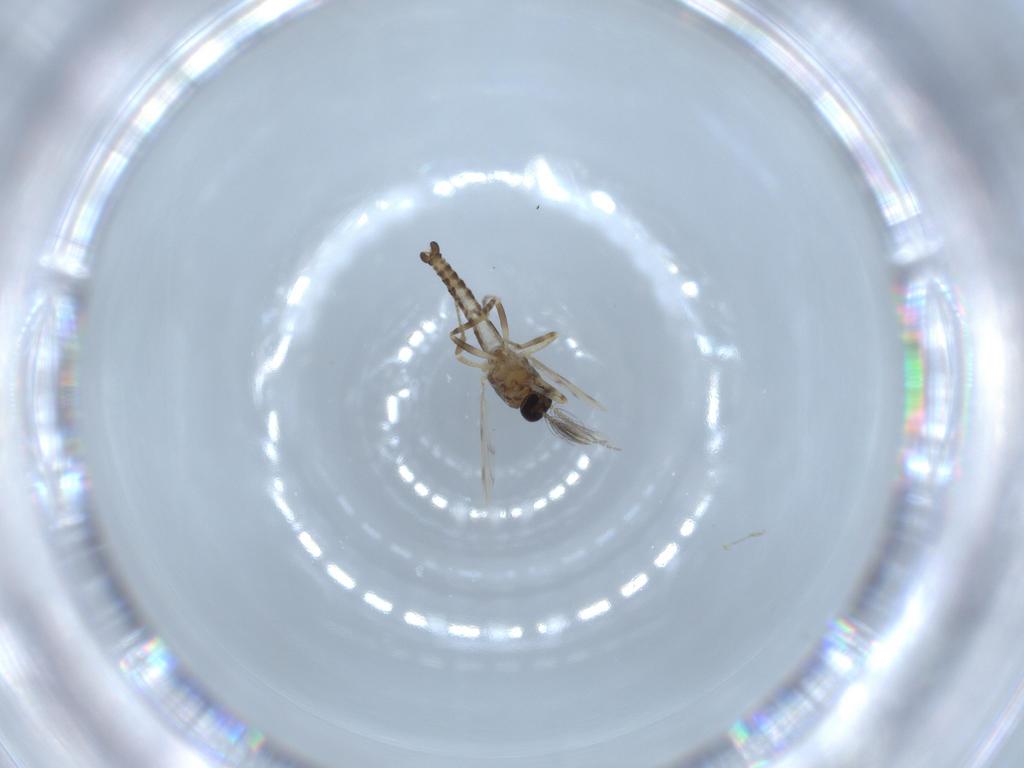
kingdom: Animalia
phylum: Arthropoda
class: Insecta
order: Diptera
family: Ceratopogonidae
